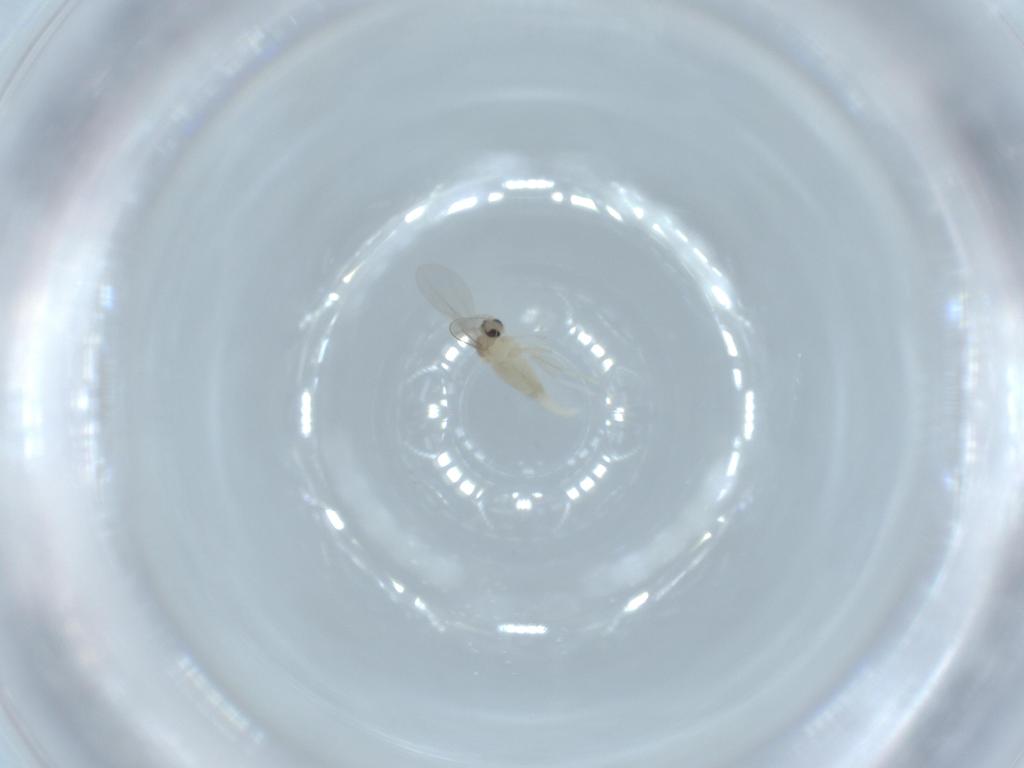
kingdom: Animalia
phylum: Arthropoda
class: Insecta
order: Diptera
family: Cecidomyiidae
